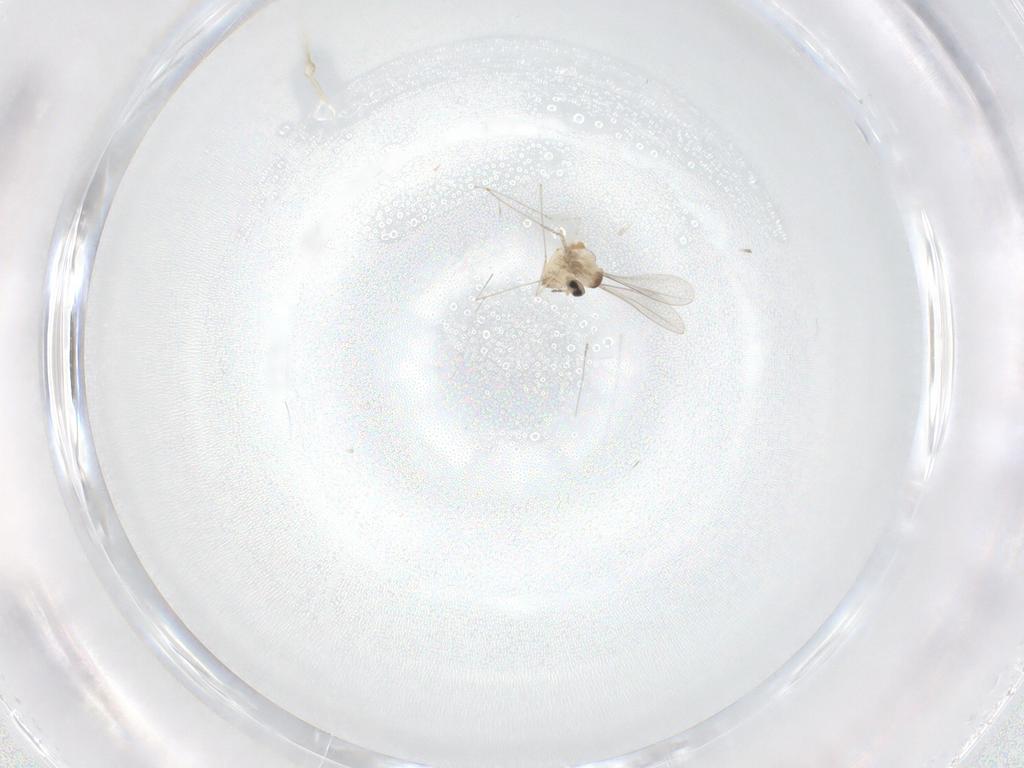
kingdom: Animalia
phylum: Arthropoda
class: Insecta
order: Diptera
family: Cecidomyiidae
